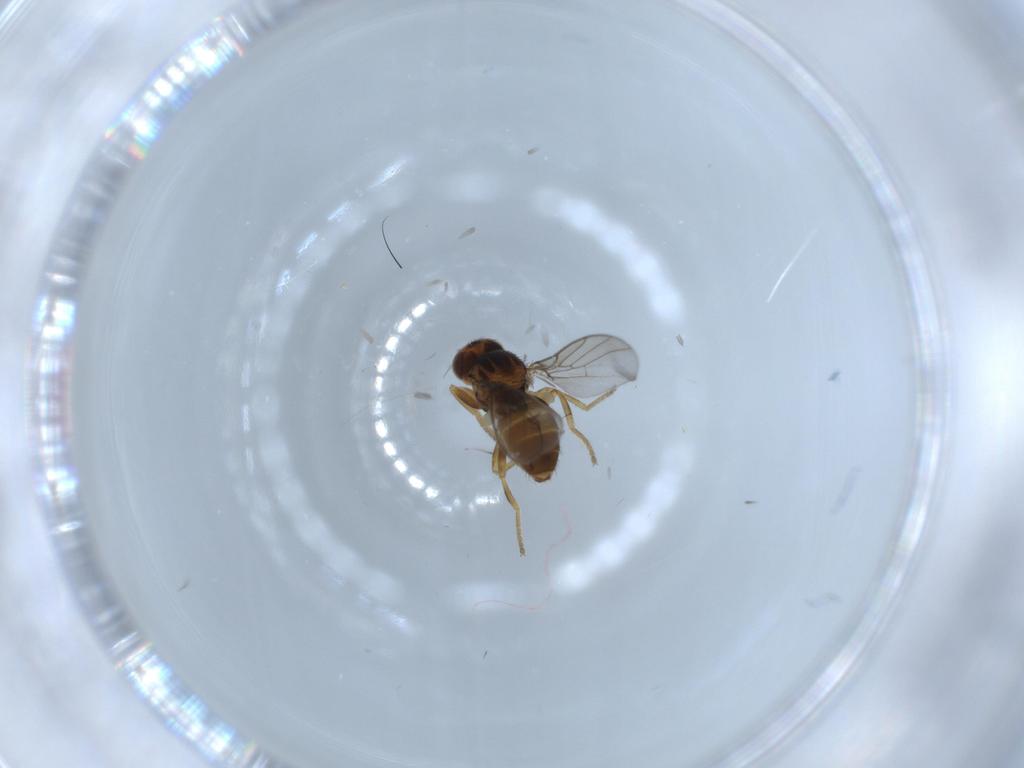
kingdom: Animalia
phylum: Arthropoda
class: Insecta
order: Diptera
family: Chloropidae
